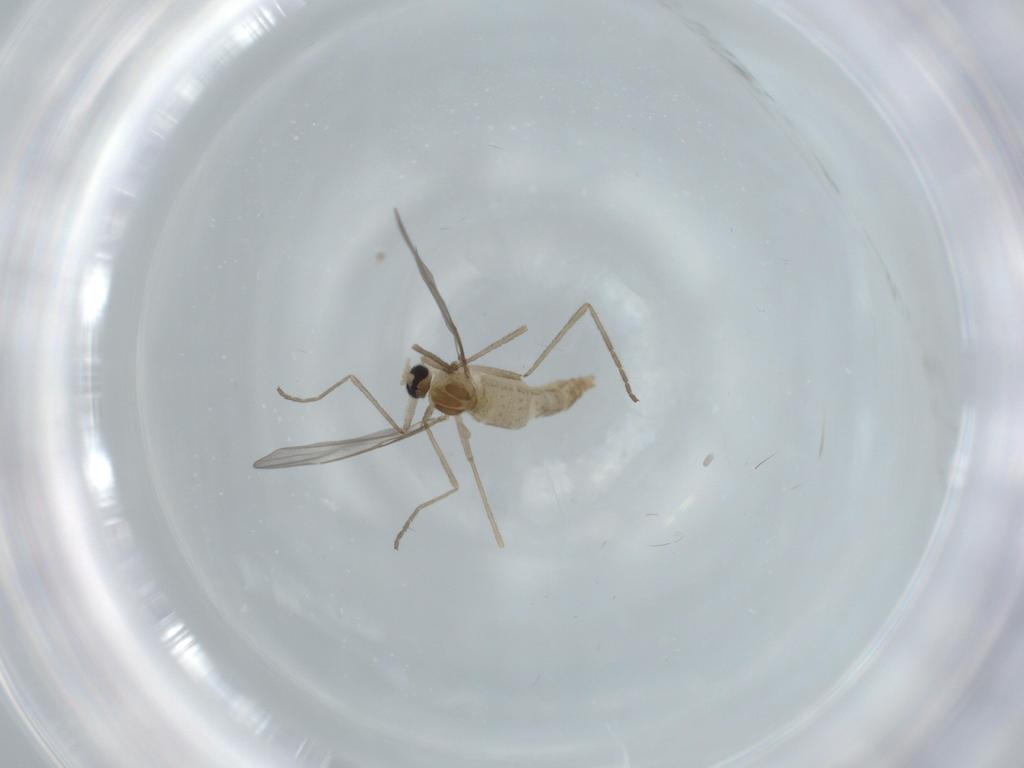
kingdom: Animalia
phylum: Arthropoda
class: Insecta
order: Diptera
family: Cecidomyiidae
